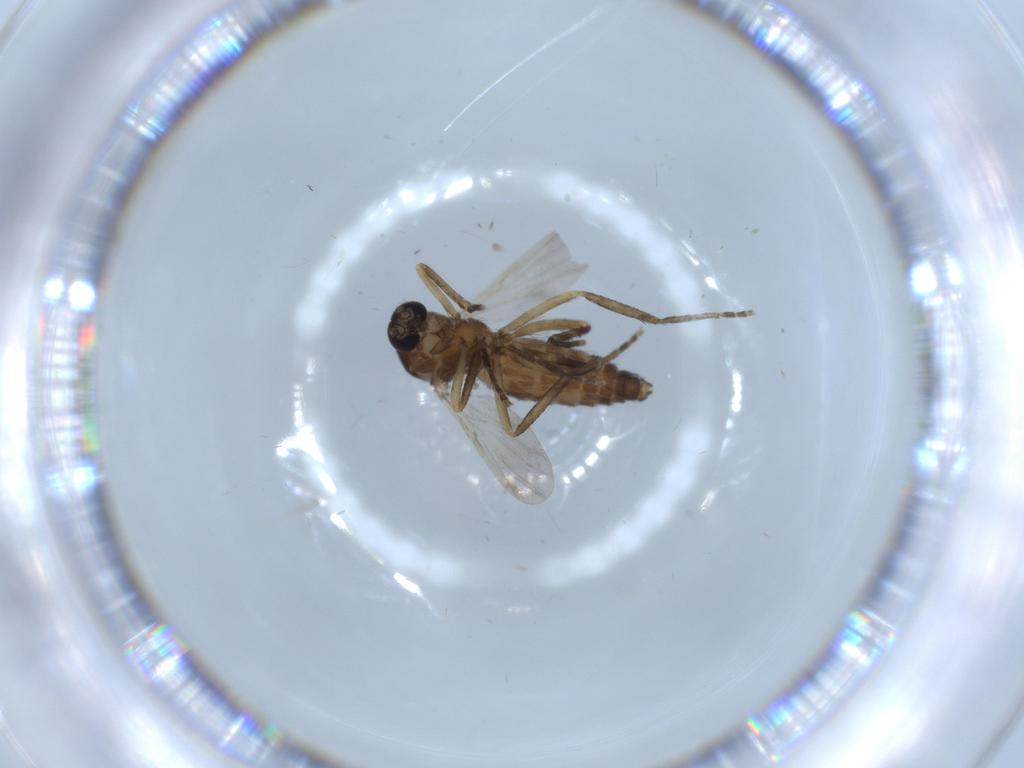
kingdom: Animalia
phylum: Arthropoda
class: Insecta
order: Diptera
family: Ceratopogonidae
